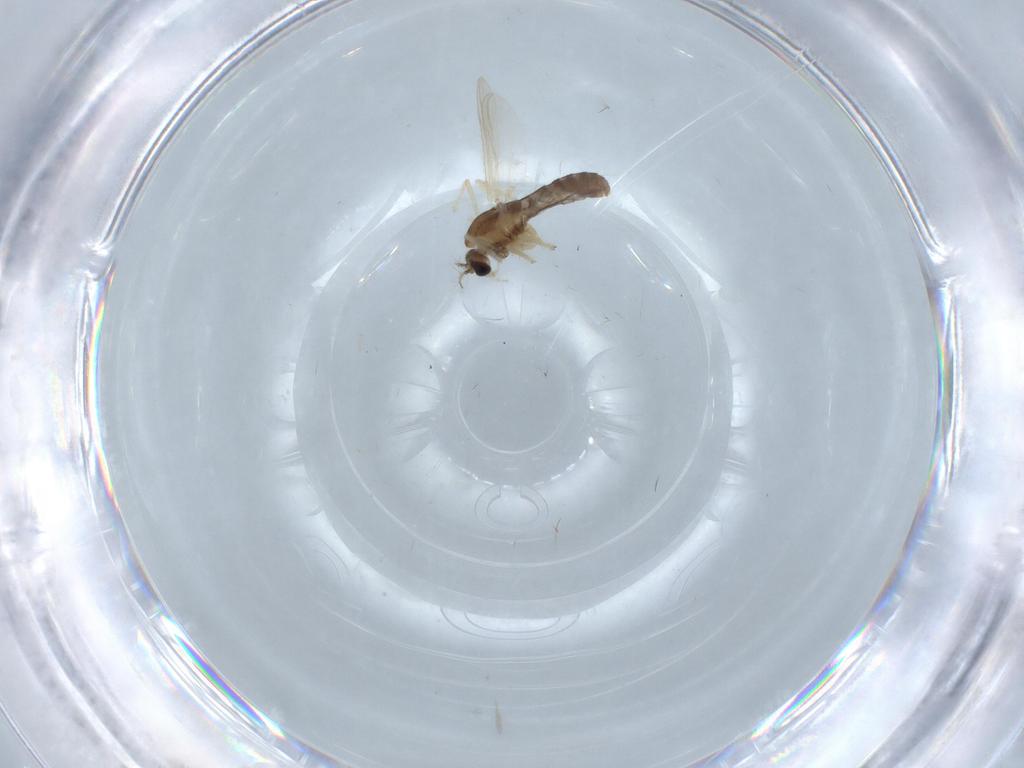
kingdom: Animalia
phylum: Arthropoda
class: Insecta
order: Diptera
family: Chironomidae
